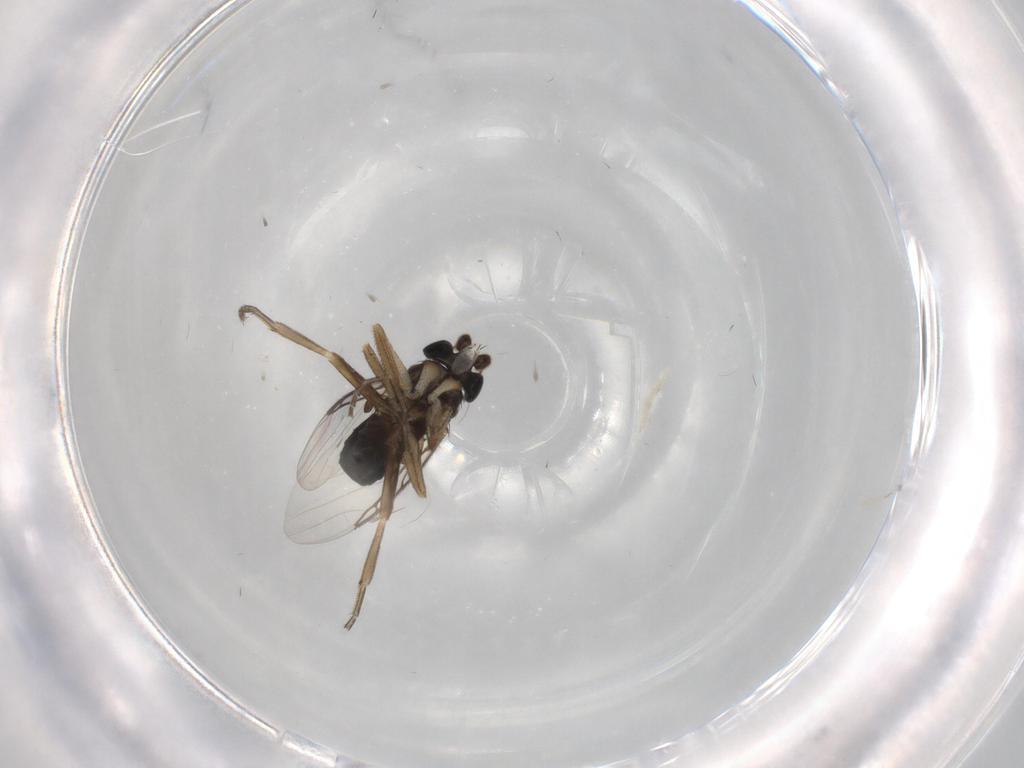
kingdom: Animalia
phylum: Arthropoda
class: Insecta
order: Diptera
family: Phoridae
